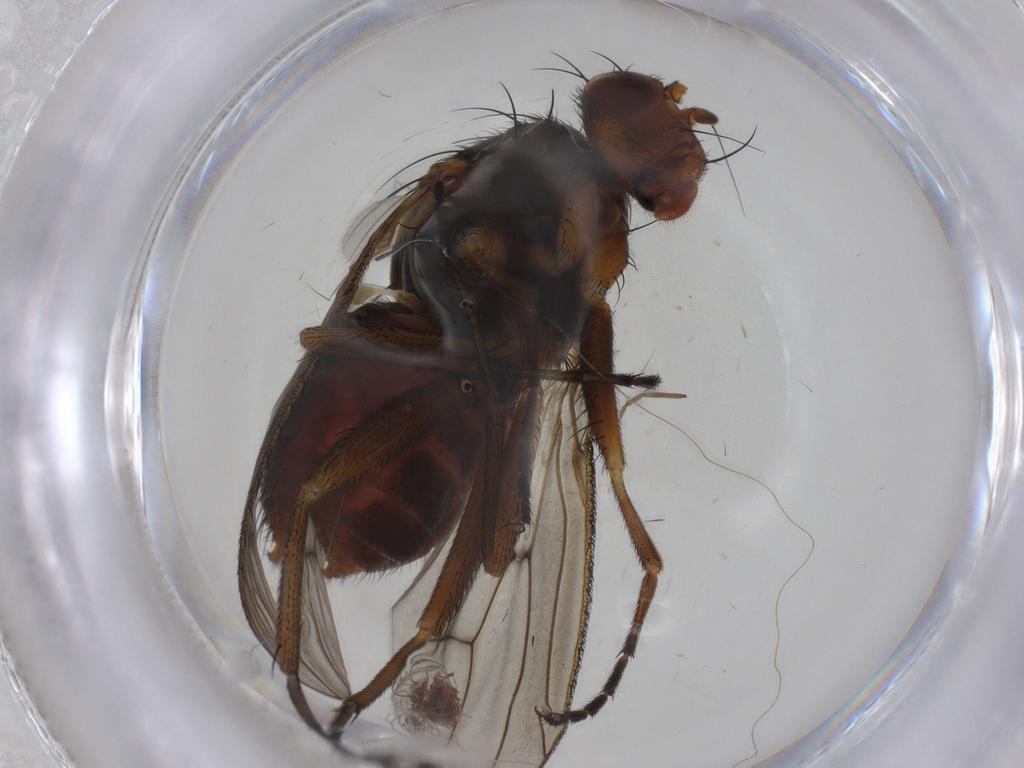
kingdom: Animalia
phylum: Arthropoda
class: Insecta
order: Diptera
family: Heleomyzidae
